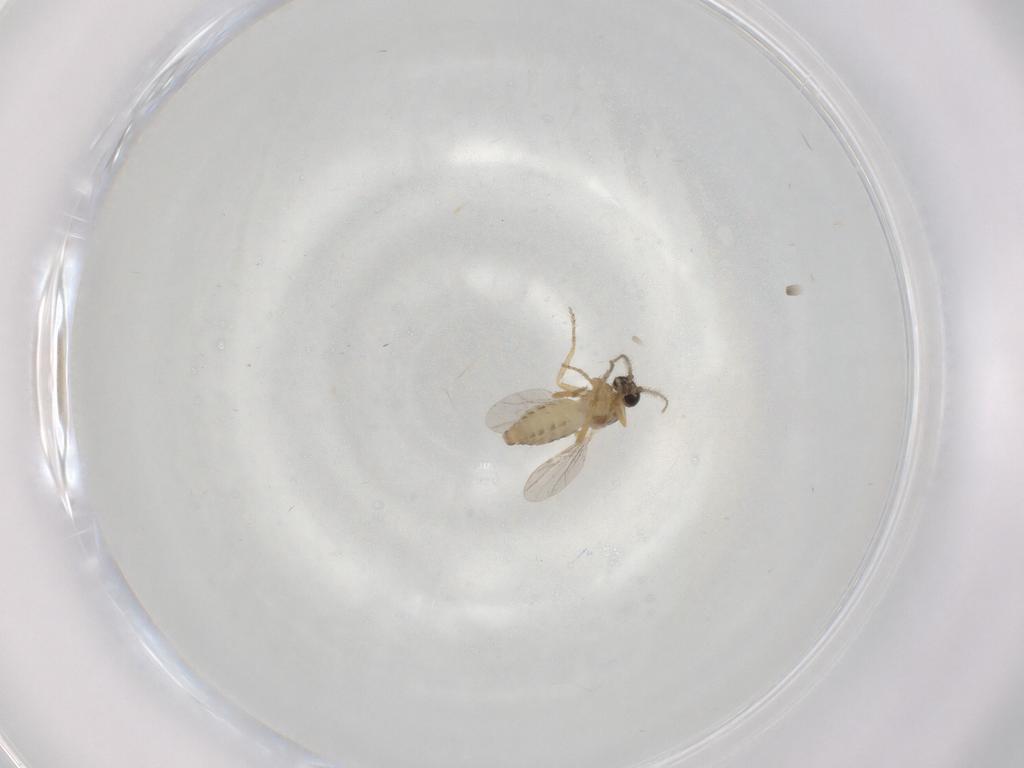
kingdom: Animalia
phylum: Arthropoda
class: Insecta
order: Diptera
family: Ceratopogonidae
